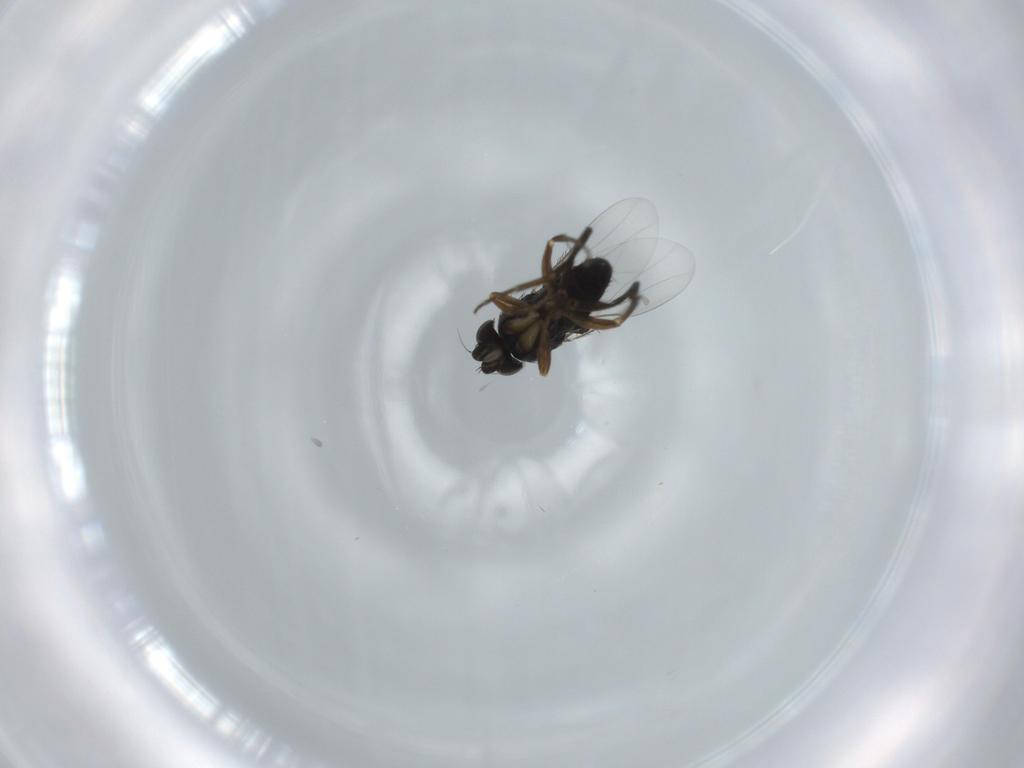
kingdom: Animalia
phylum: Arthropoda
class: Insecta
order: Diptera
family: Phoridae
